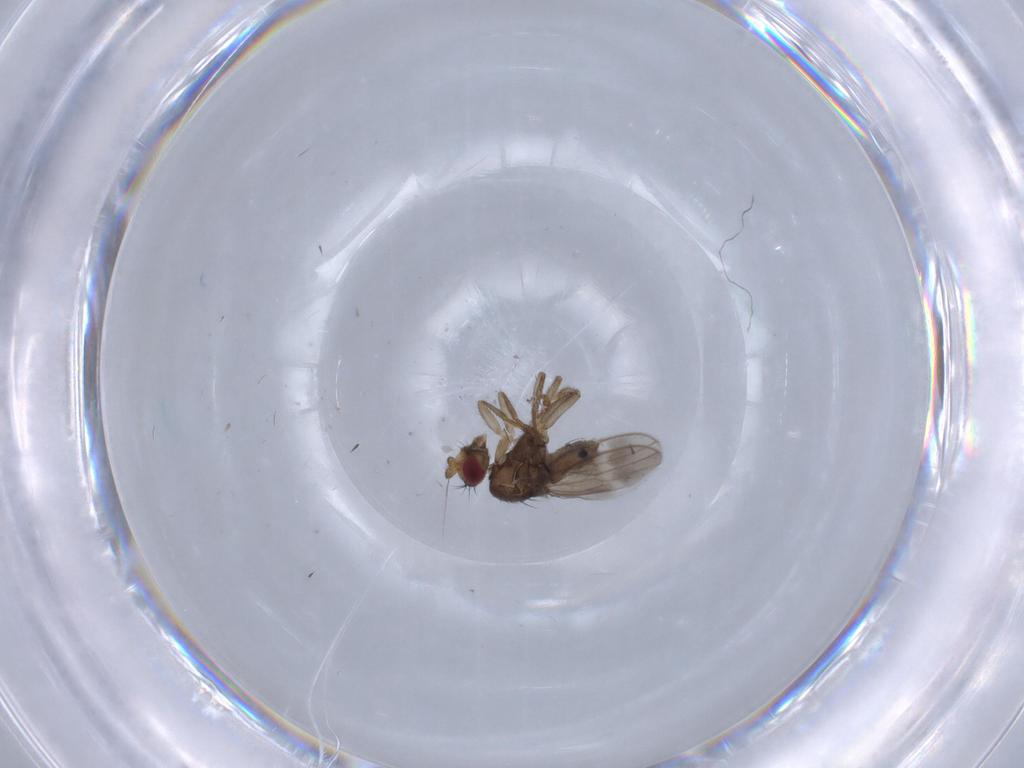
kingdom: Animalia
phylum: Arthropoda
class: Insecta
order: Diptera
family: Sphaeroceridae
